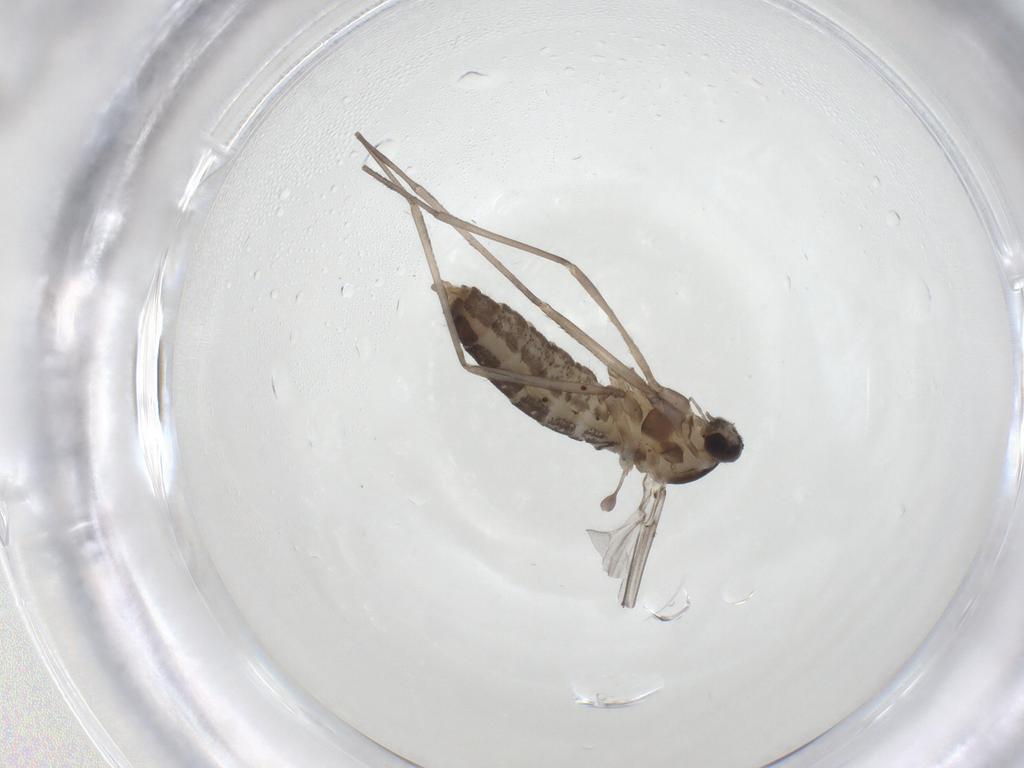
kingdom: Animalia
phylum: Arthropoda
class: Insecta
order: Diptera
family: Cecidomyiidae
